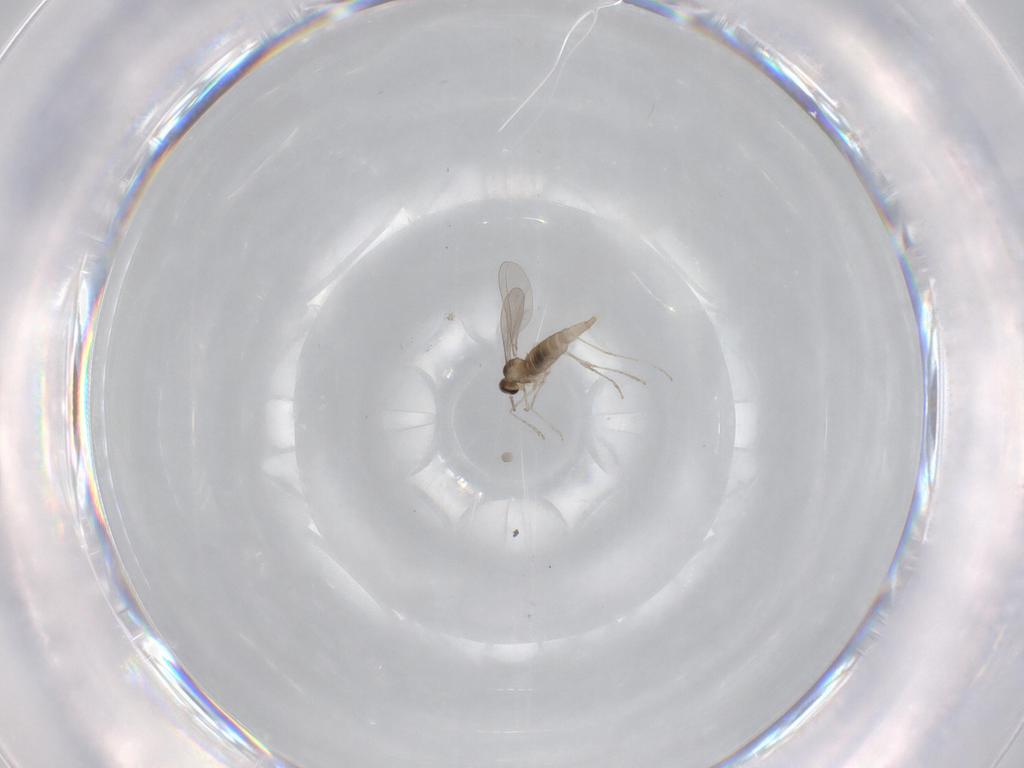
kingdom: Animalia
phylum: Arthropoda
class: Insecta
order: Diptera
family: Ceratopogonidae
